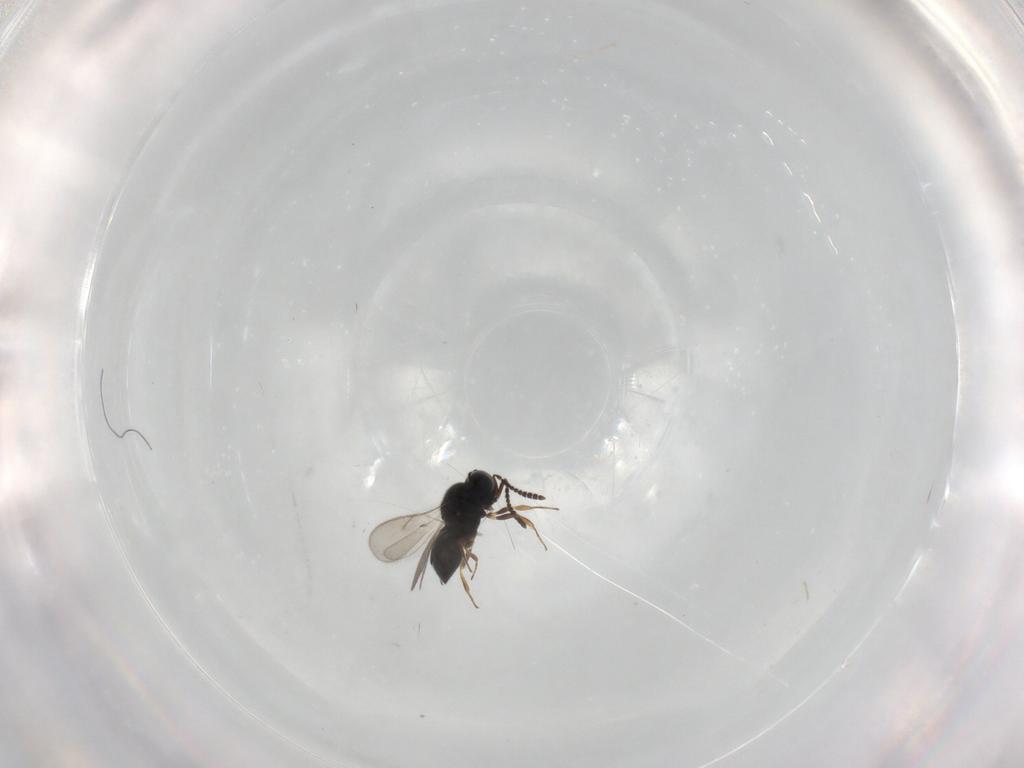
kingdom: Animalia
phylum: Arthropoda
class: Insecta
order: Hymenoptera
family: Scelionidae
